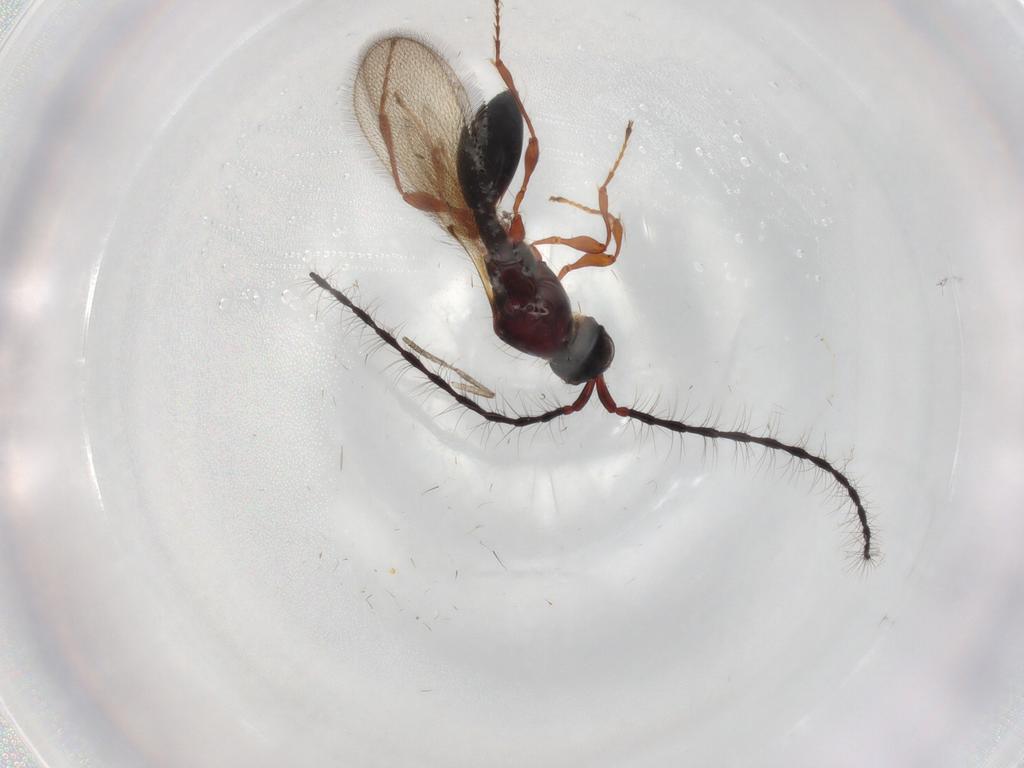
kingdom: Animalia
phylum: Arthropoda
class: Insecta
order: Hymenoptera
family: Diapriidae
